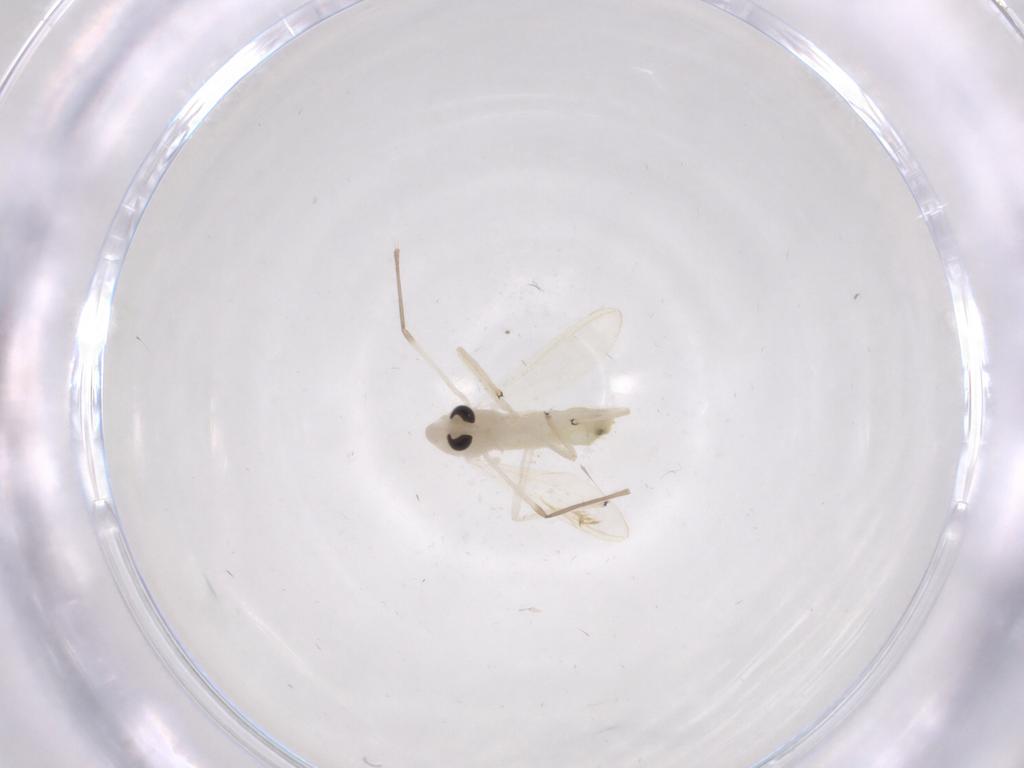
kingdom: Animalia
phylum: Arthropoda
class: Insecta
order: Diptera
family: Chironomidae
